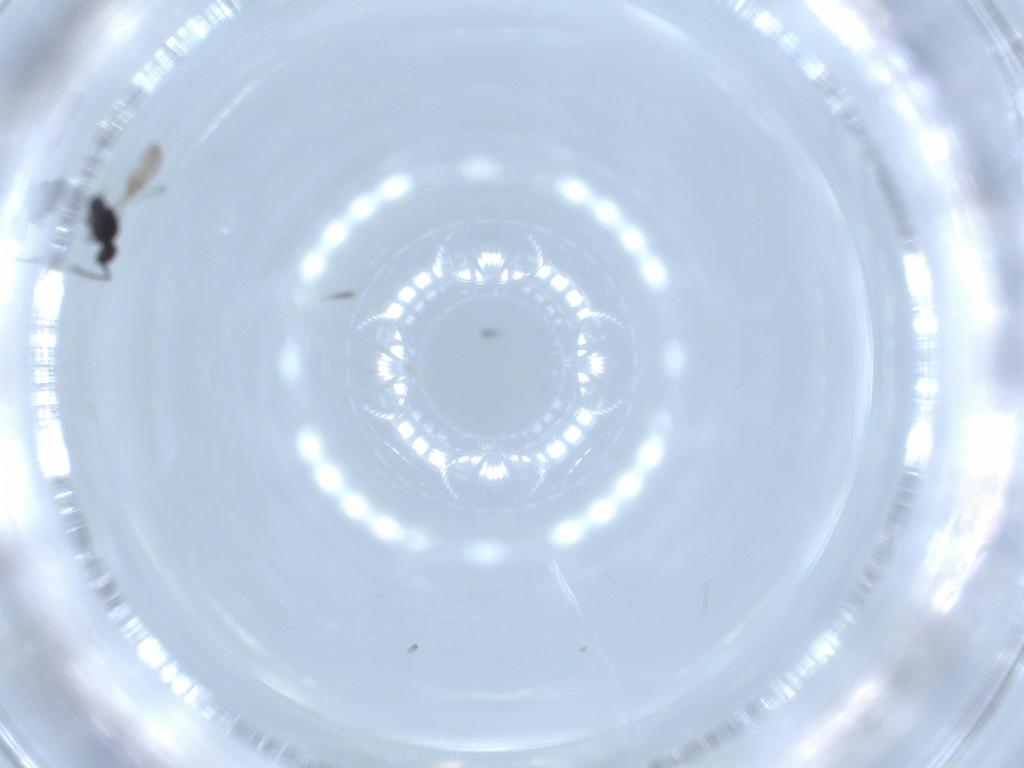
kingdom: Animalia
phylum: Arthropoda
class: Insecta
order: Hymenoptera
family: Ceraphronidae
